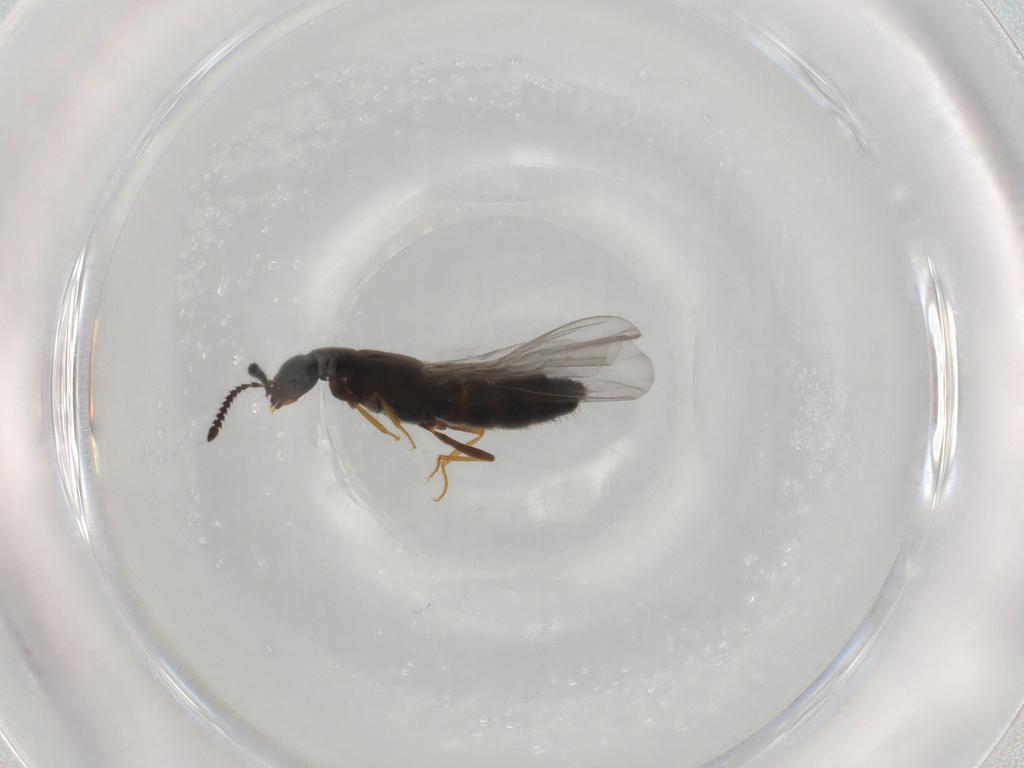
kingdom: Animalia
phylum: Arthropoda
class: Insecta
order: Coleoptera
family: Staphylinidae
